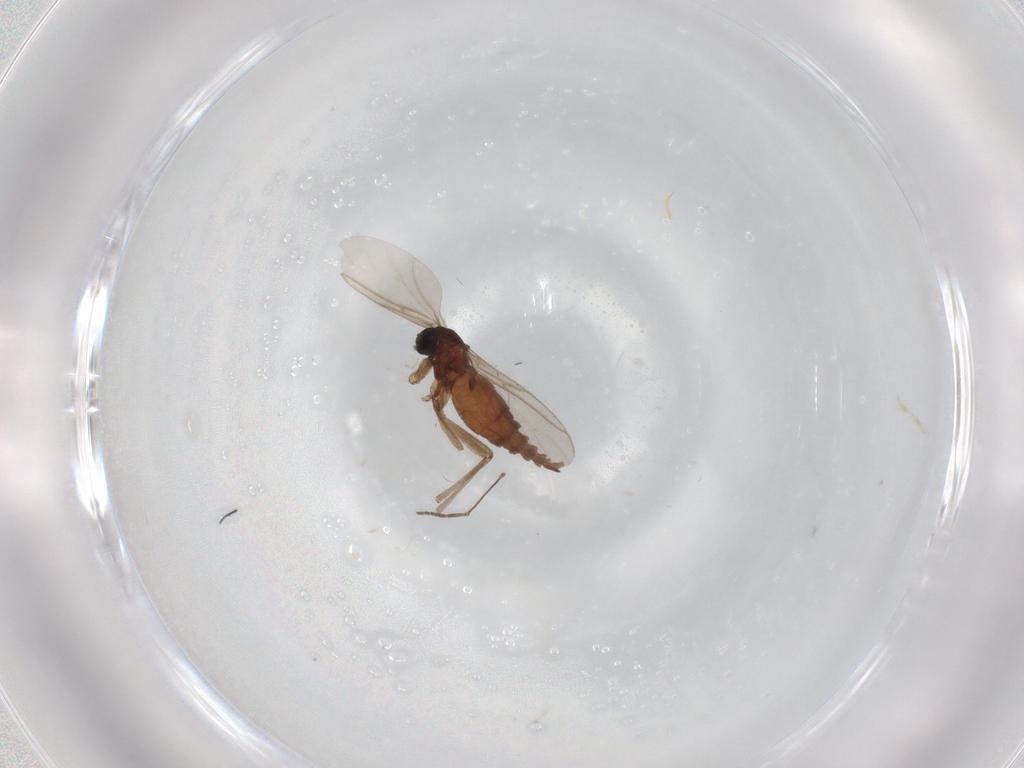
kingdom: Animalia
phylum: Arthropoda
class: Insecta
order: Diptera
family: Sciaridae
